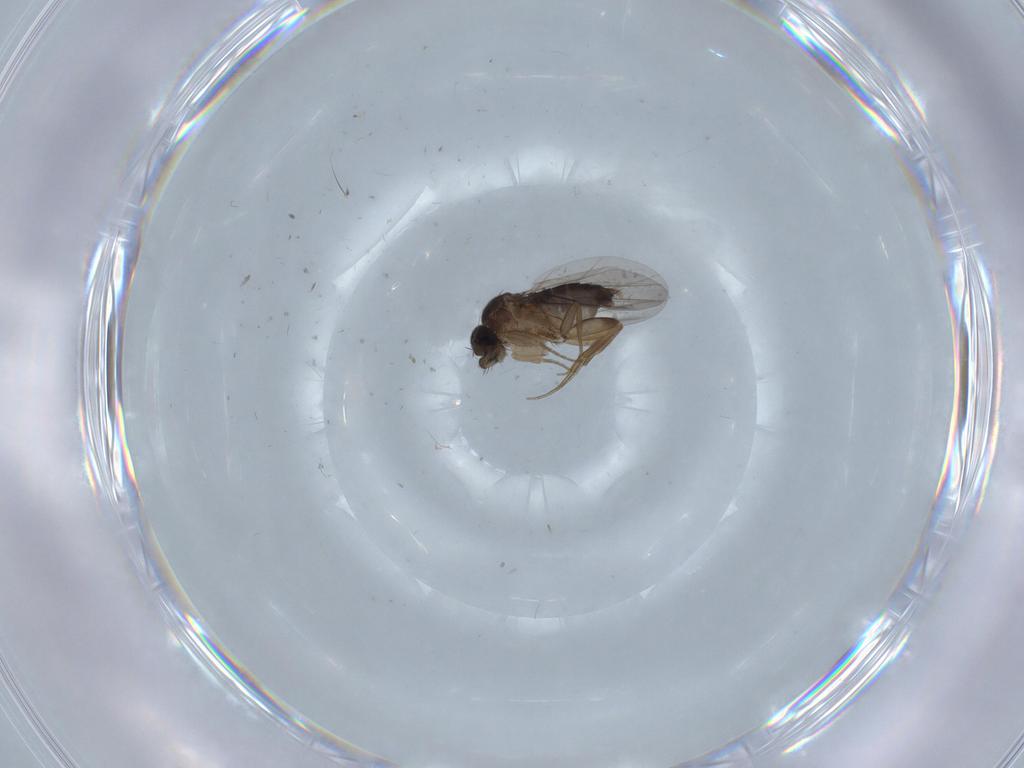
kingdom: Animalia
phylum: Arthropoda
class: Insecta
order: Diptera
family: Phoridae
